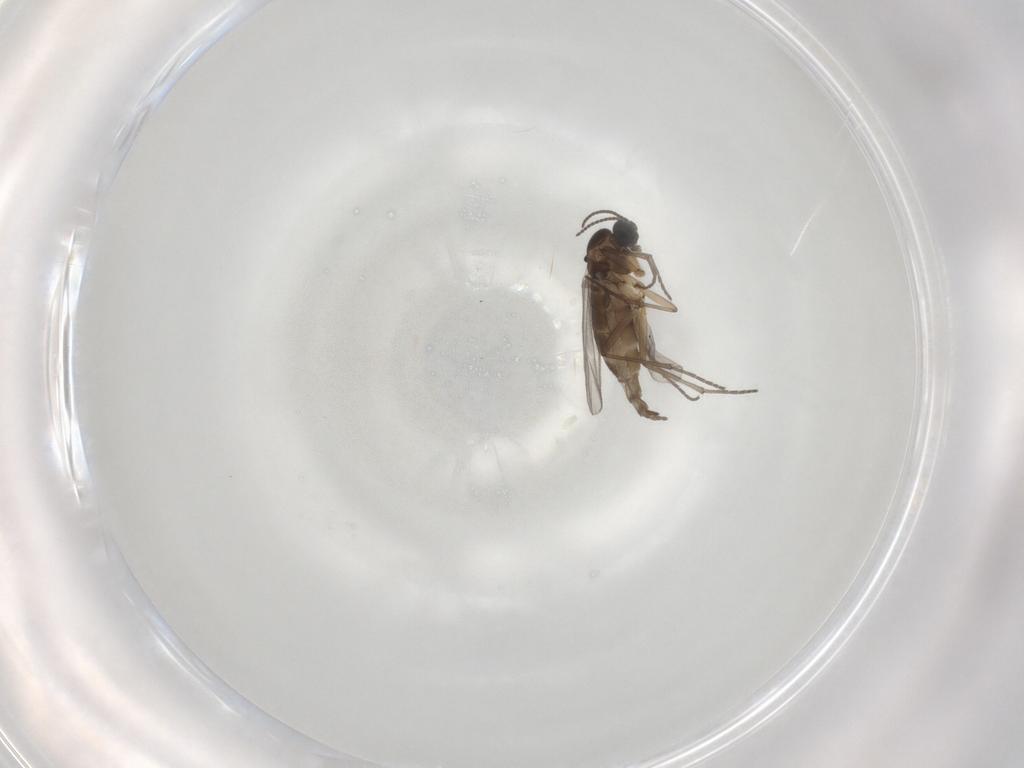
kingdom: Animalia
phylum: Arthropoda
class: Insecta
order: Diptera
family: Sciaridae
